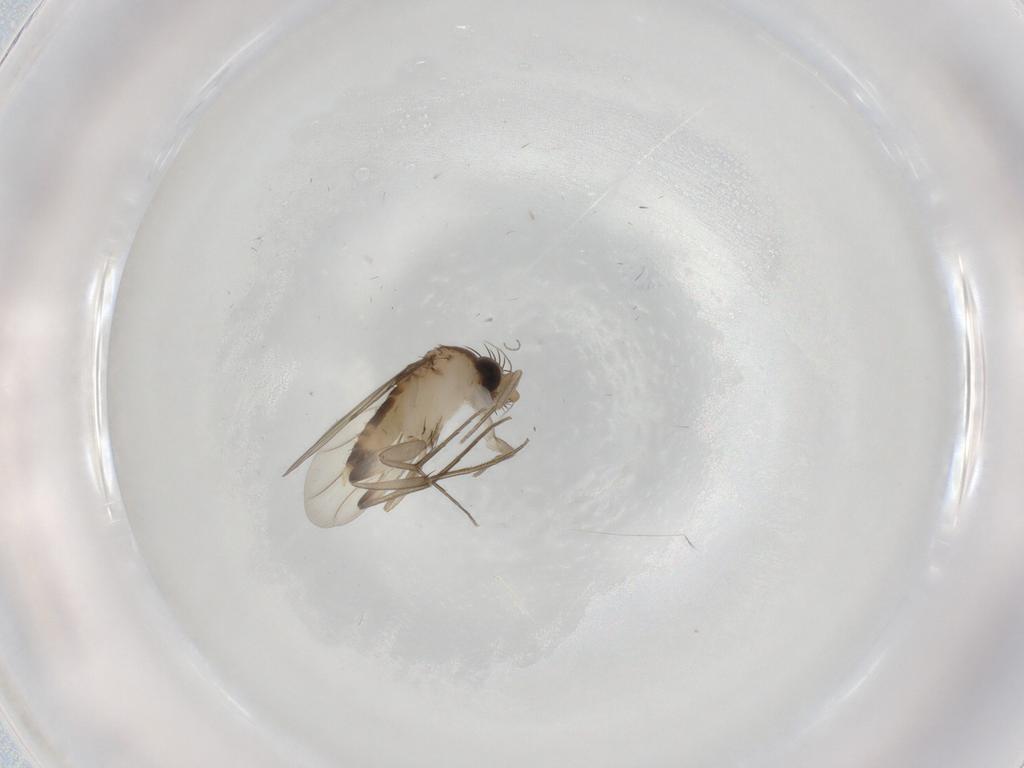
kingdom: Animalia
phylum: Arthropoda
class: Insecta
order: Diptera
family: Phoridae
